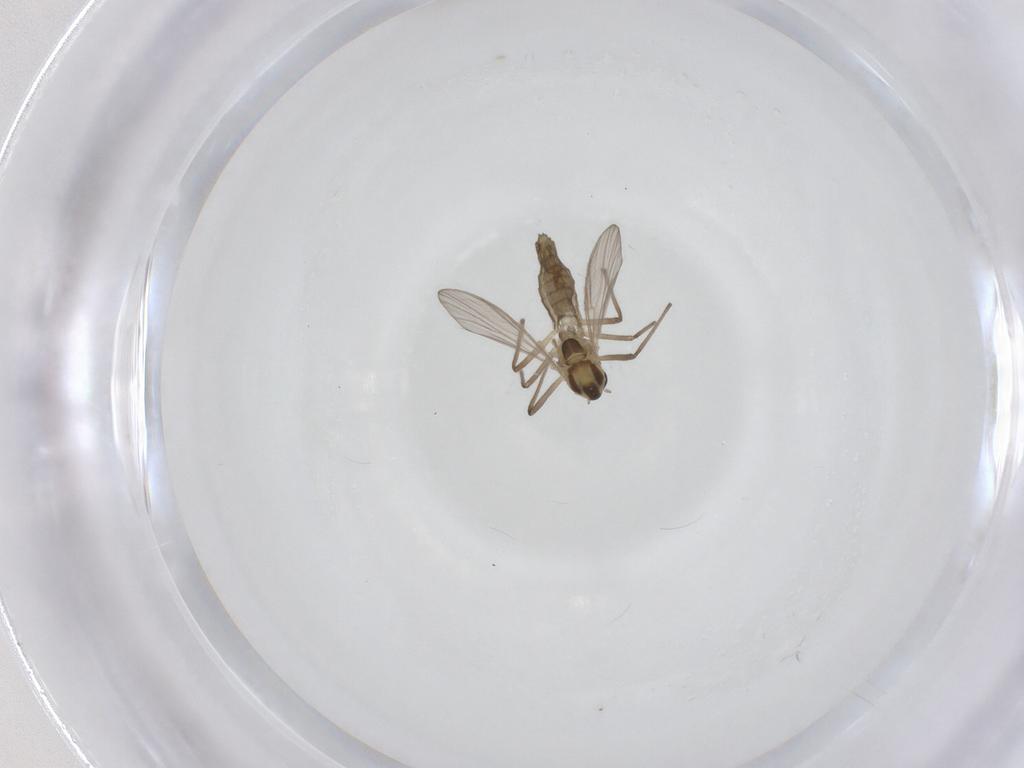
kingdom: Animalia
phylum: Arthropoda
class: Insecta
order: Diptera
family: Chironomidae
